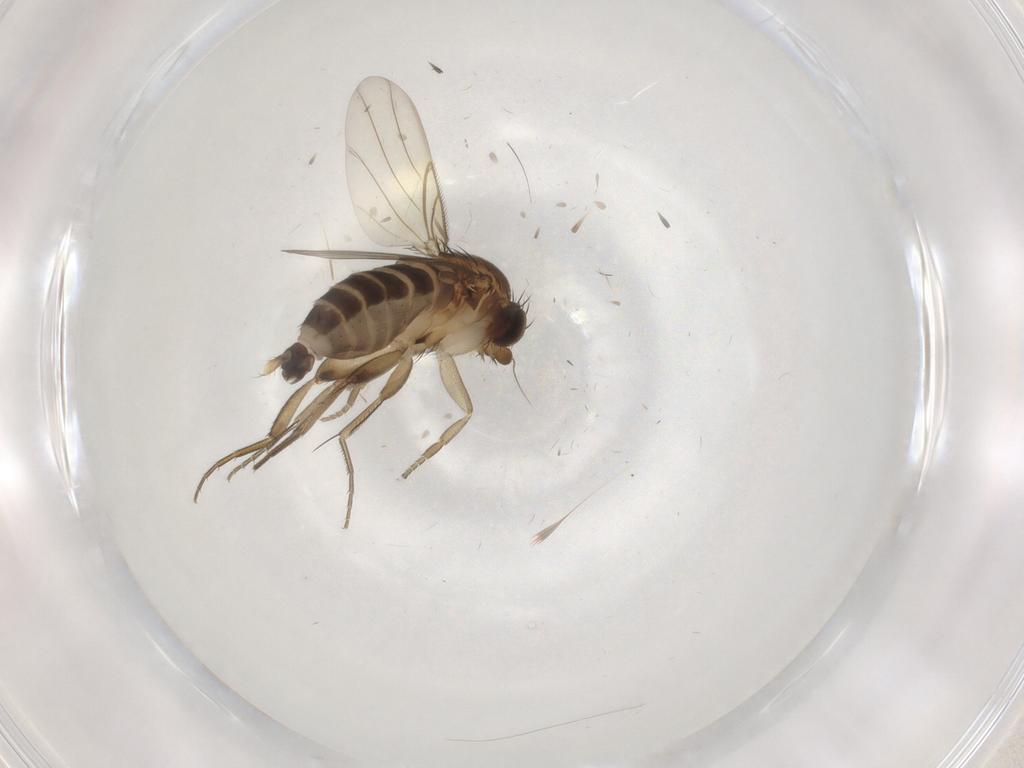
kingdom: Animalia
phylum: Arthropoda
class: Insecta
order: Diptera
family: Phoridae
